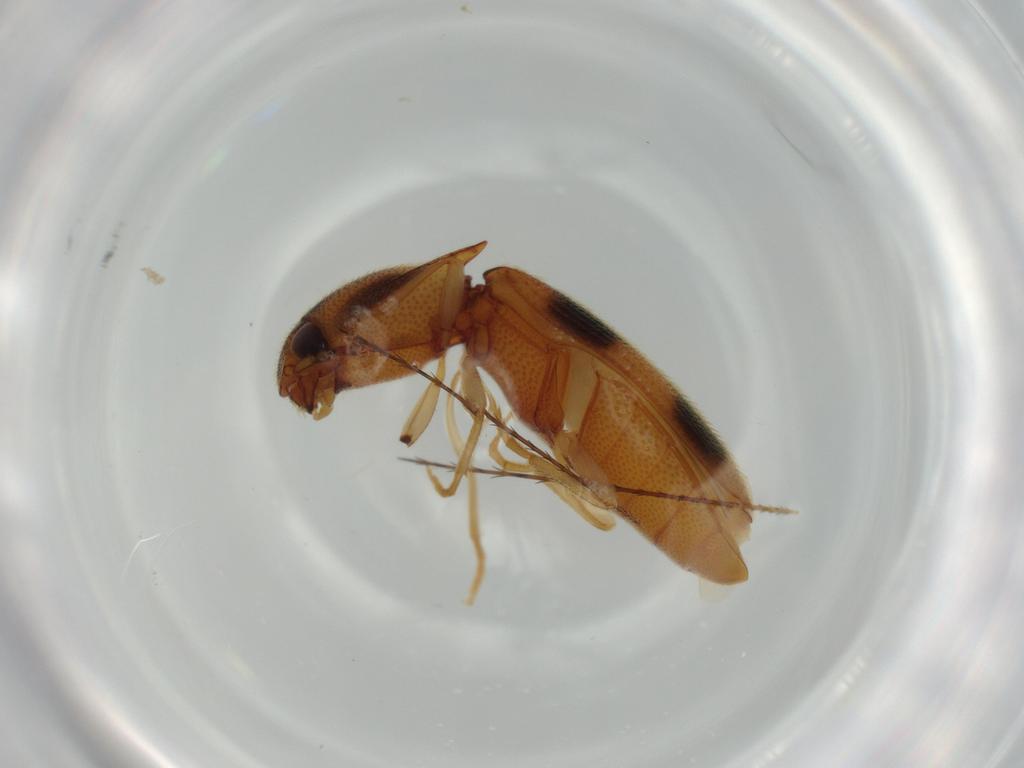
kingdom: Animalia
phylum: Arthropoda
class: Insecta
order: Coleoptera
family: Elateridae
